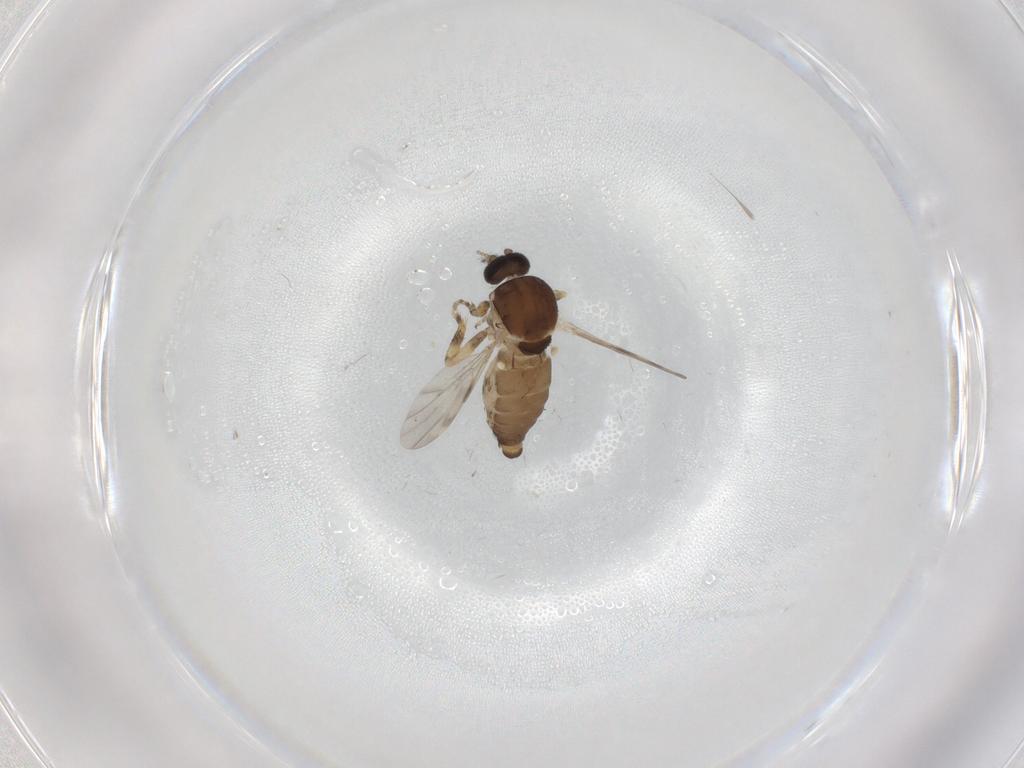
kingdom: Animalia
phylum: Arthropoda
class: Insecta
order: Diptera
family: Ceratopogonidae
